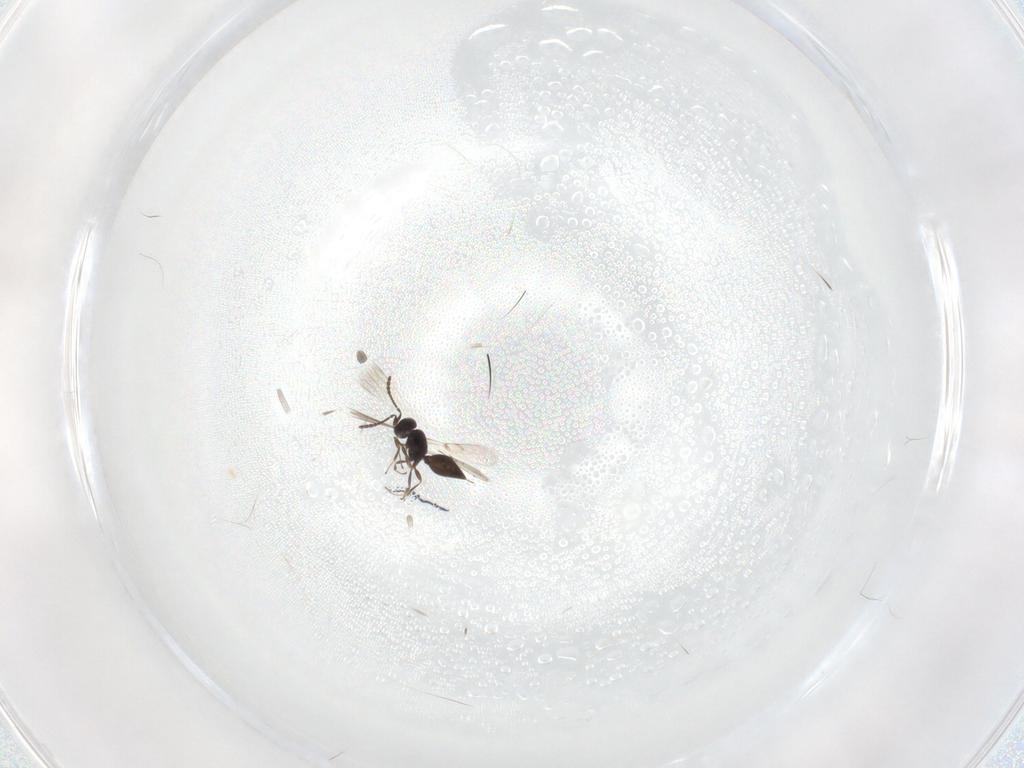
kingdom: Animalia
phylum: Arthropoda
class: Insecta
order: Hymenoptera
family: Scelionidae
